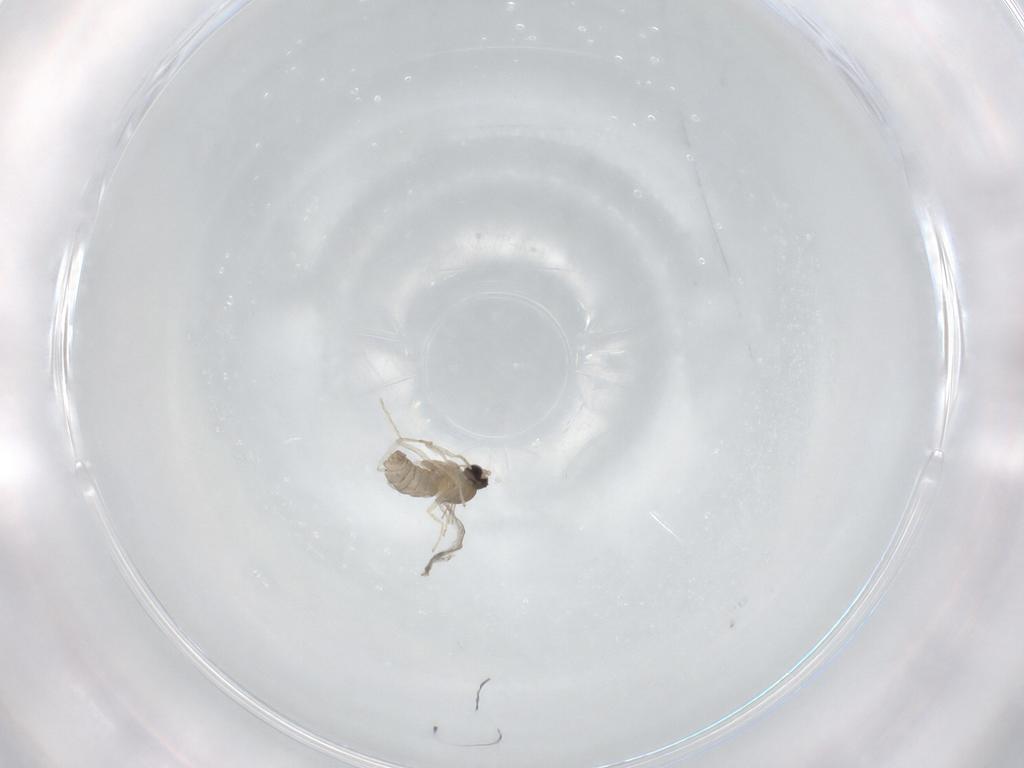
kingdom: Animalia
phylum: Arthropoda
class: Insecta
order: Diptera
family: Cecidomyiidae
